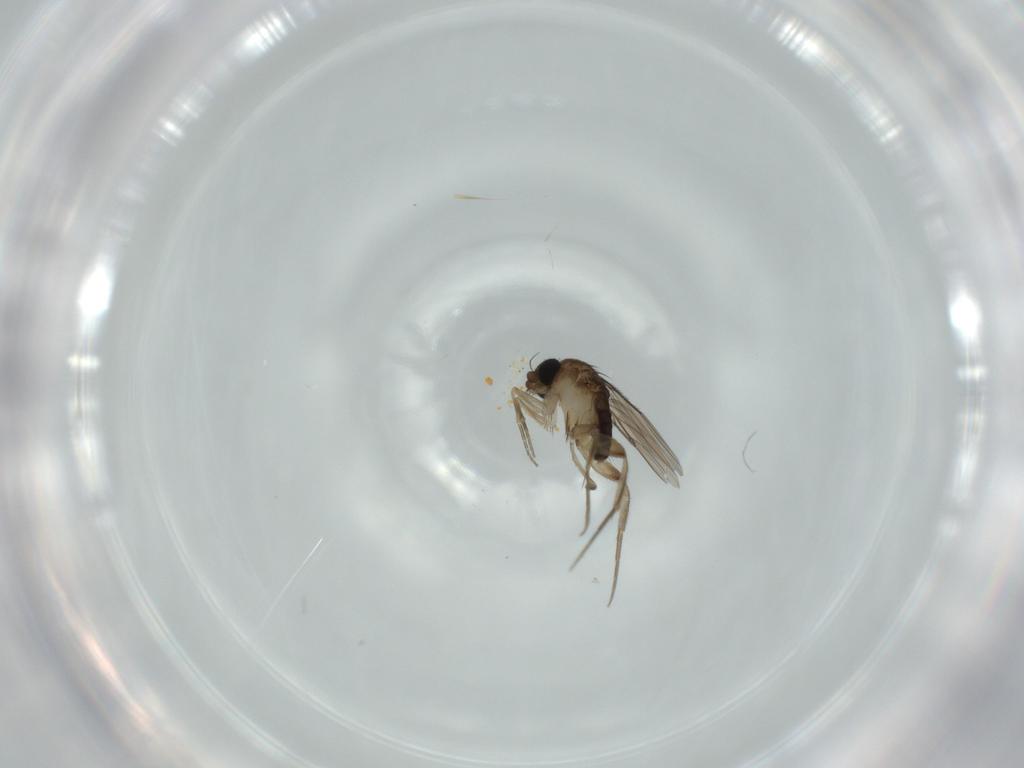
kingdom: Animalia
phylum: Arthropoda
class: Insecta
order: Diptera
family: Phoridae
